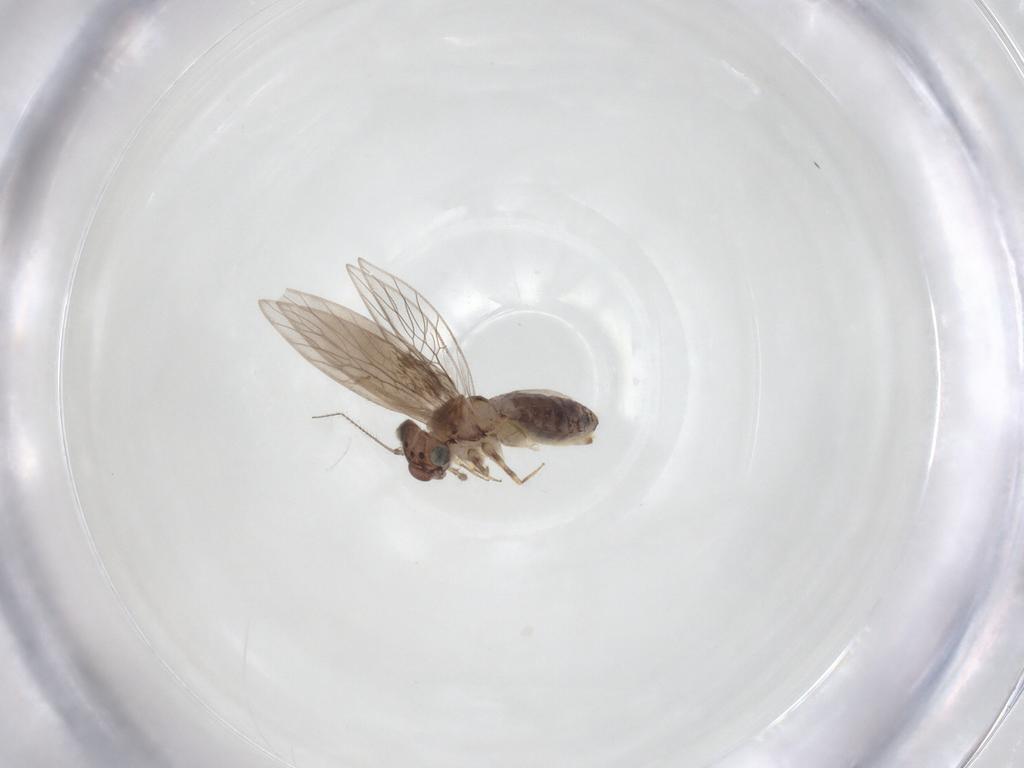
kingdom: Animalia
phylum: Arthropoda
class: Insecta
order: Psocodea
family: Lepidopsocidae
